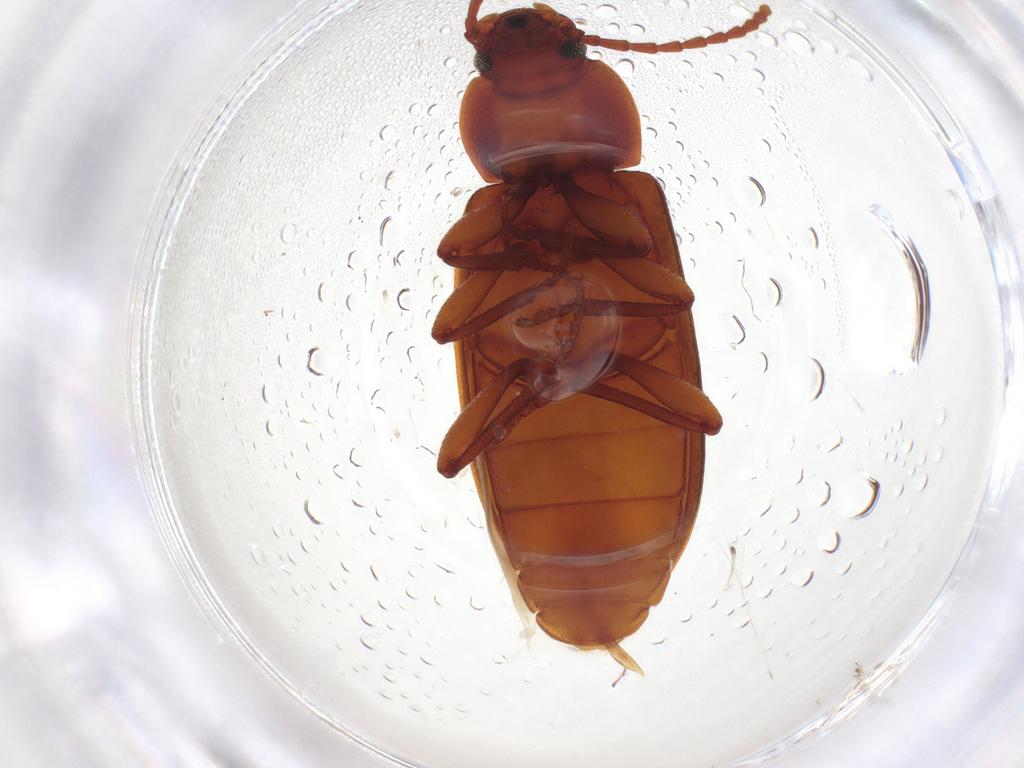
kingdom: Animalia
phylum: Arthropoda
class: Insecta
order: Coleoptera
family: Tenebrionidae
